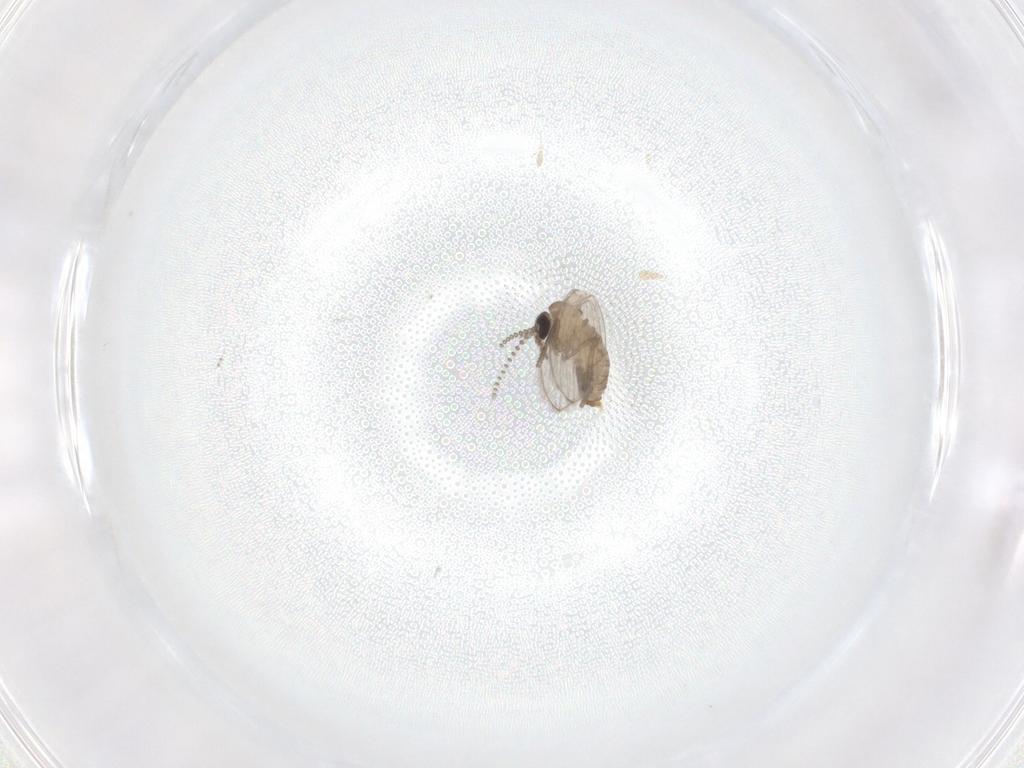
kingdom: Animalia
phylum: Arthropoda
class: Insecta
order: Diptera
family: Psychodidae
